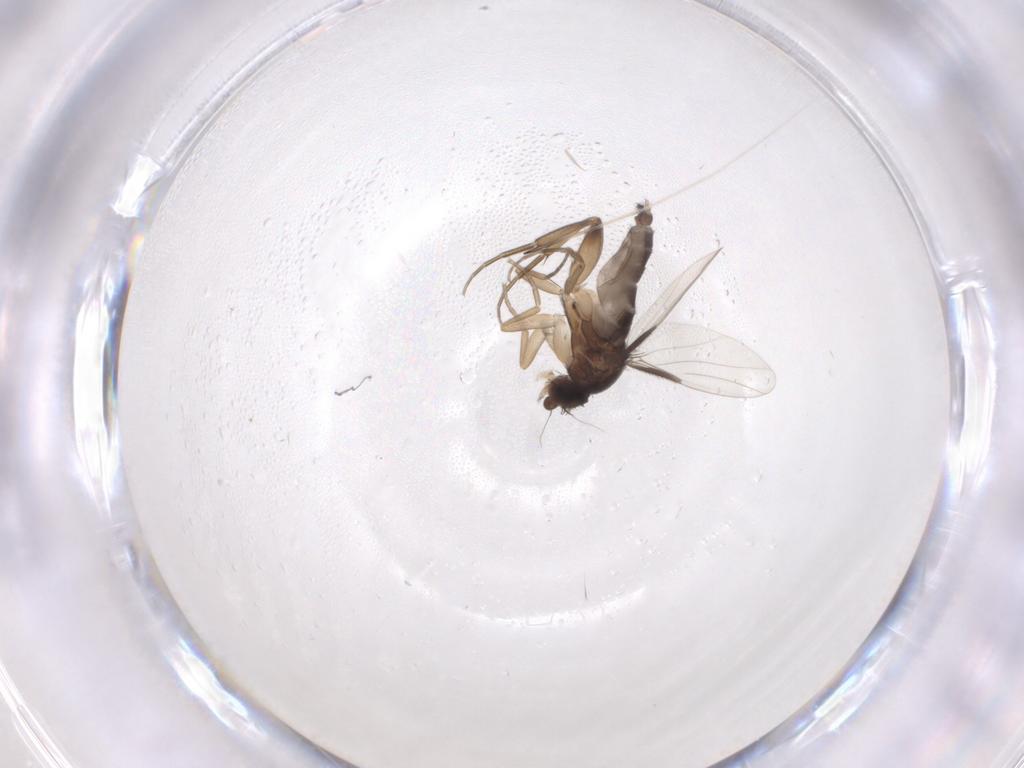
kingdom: Animalia
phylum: Arthropoda
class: Insecta
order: Diptera
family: Phoridae
